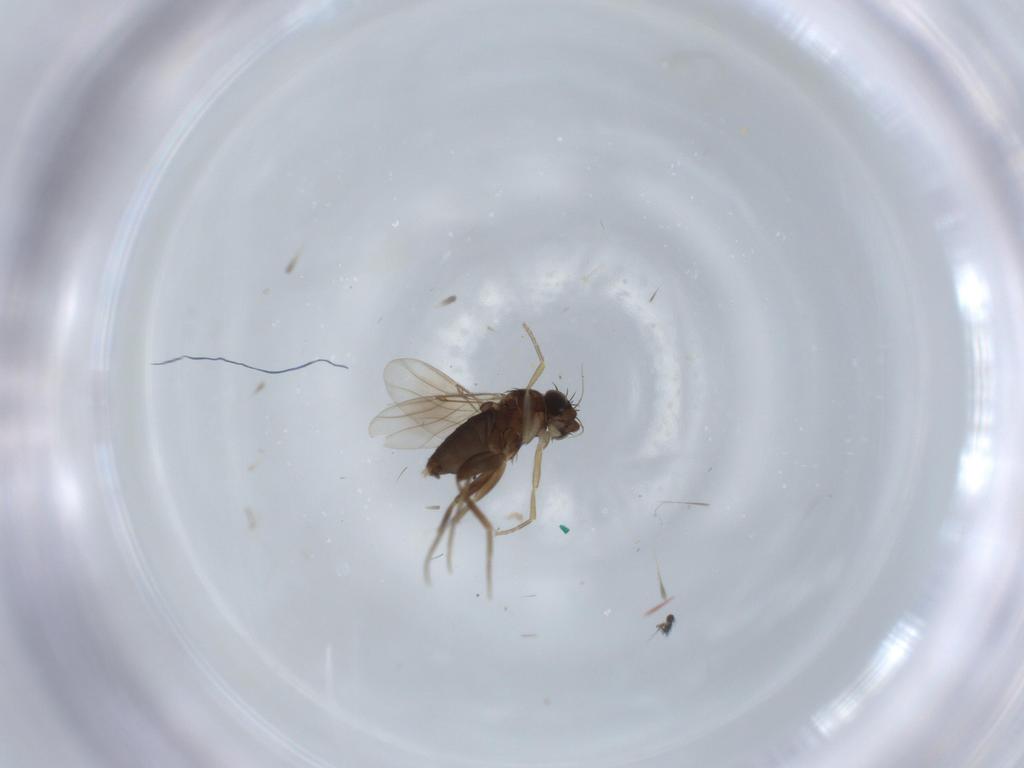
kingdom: Animalia
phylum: Arthropoda
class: Insecta
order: Diptera
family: Phoridae
